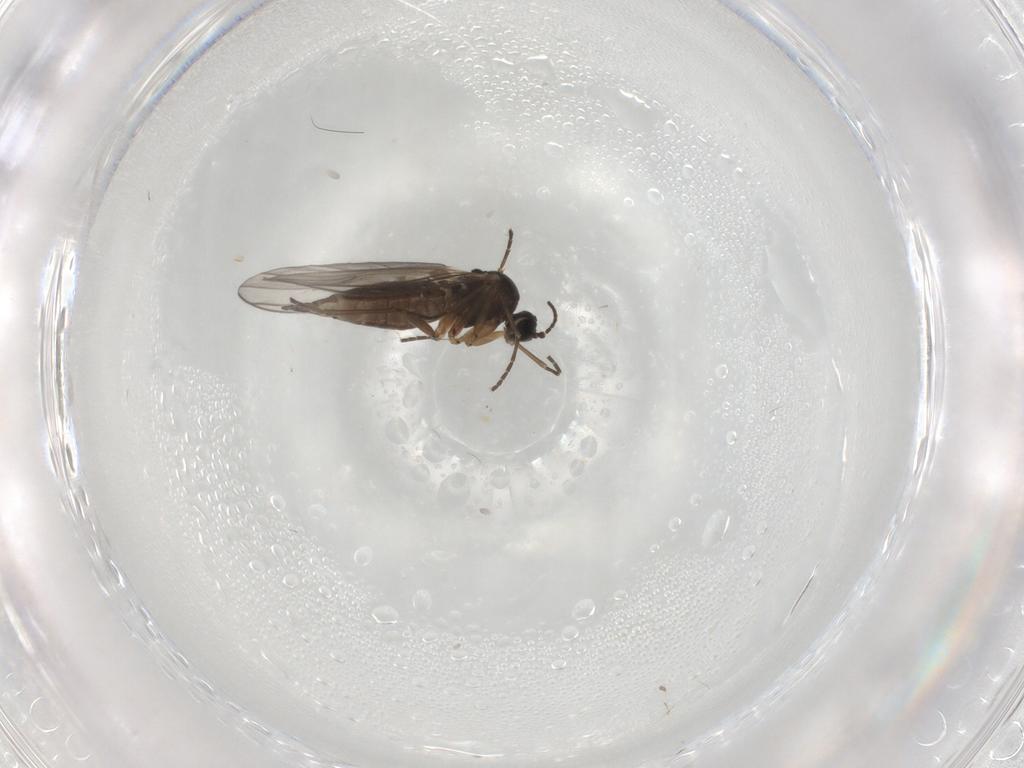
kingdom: Animalia
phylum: Arthropoda
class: Insecta
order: Diptera
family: Sciaridae
